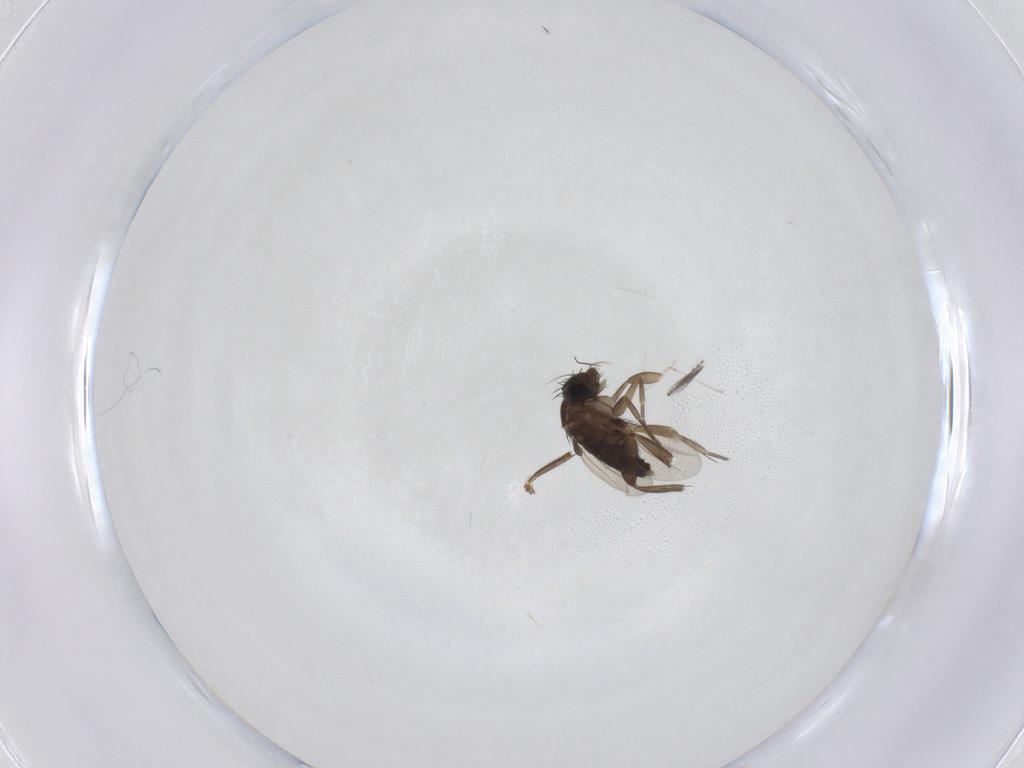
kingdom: Animalia
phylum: Arthropoda
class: Insecta
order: Diptera
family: Phoridae
